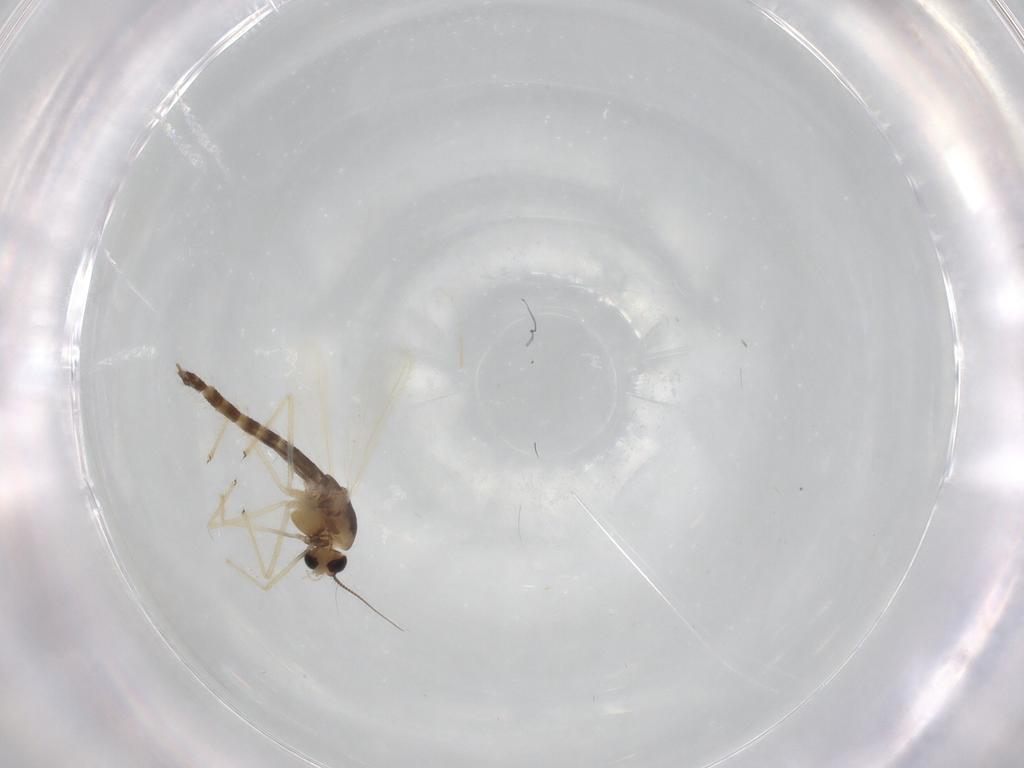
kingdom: Animalia
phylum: Arthropoda
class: Insecta
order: Diptera
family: Chironomidae
